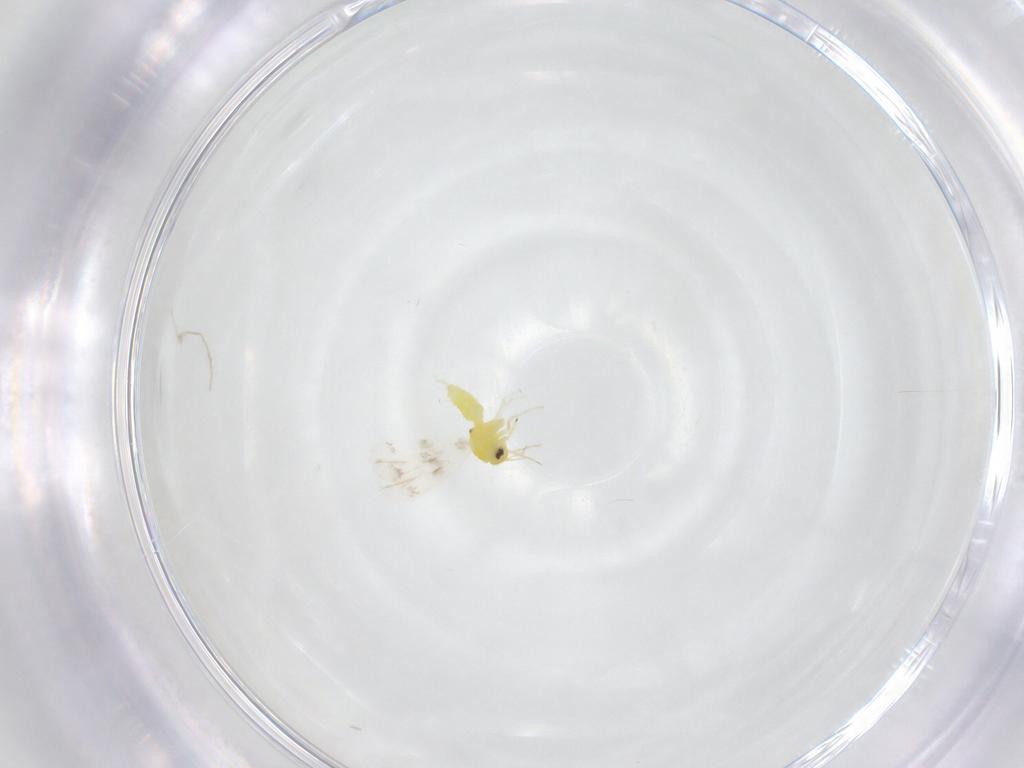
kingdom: Animalia
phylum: Arthropoda
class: Insecta
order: Hemiptera
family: Aleyrodidae
